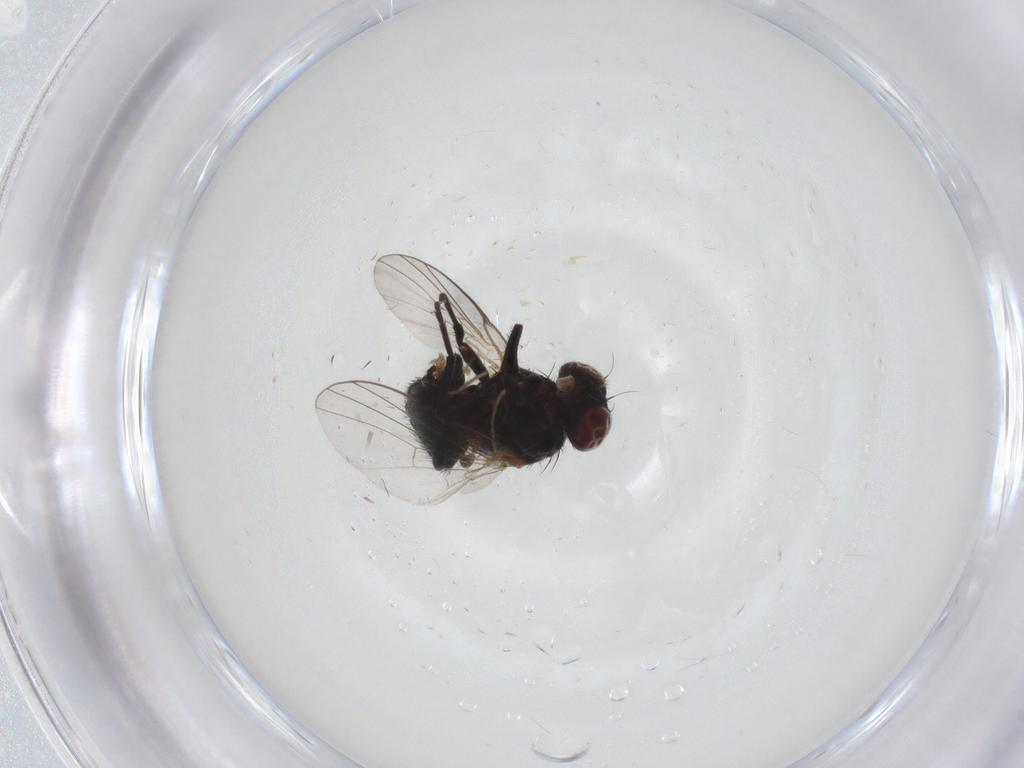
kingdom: Animalia
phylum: Arthropoda
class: Insecta
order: Diptera
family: Agromyzidae
